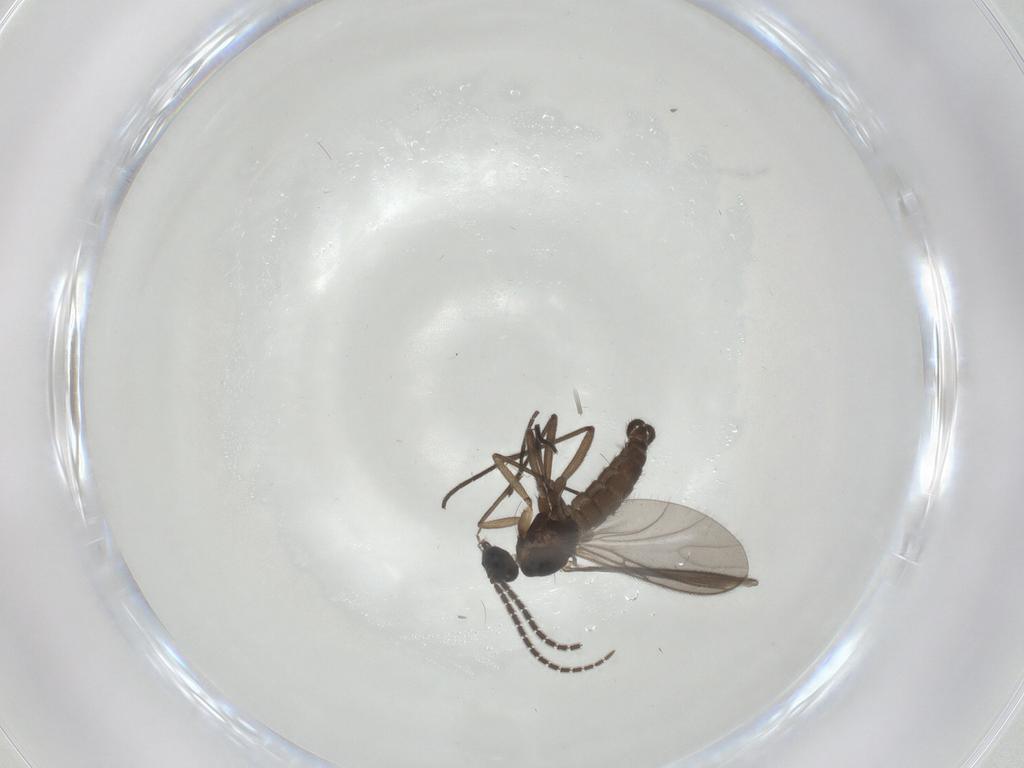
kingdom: Animalia
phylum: Arthropoda
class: Insecta
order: Diptera
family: Sciaridae
